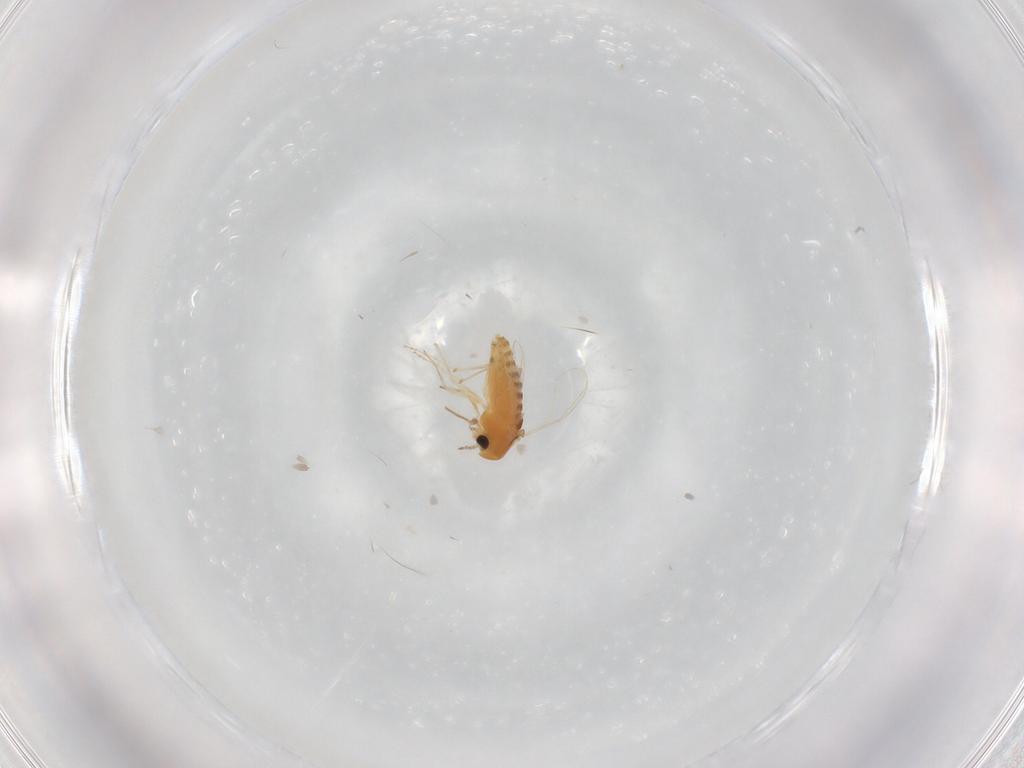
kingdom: Animalia
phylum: Arthropoda
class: Insecta
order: Diptera
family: Chironomidae
